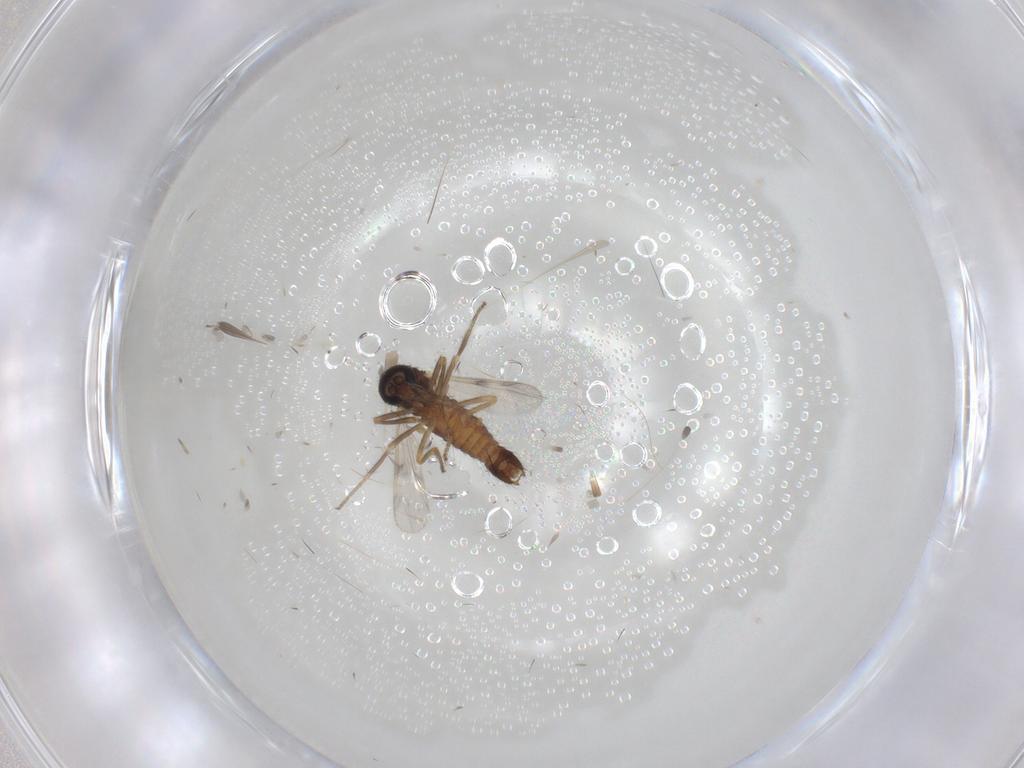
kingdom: Animalia
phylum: Arthropoda
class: Insecta
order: Diptera
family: Ceratopogonidae
